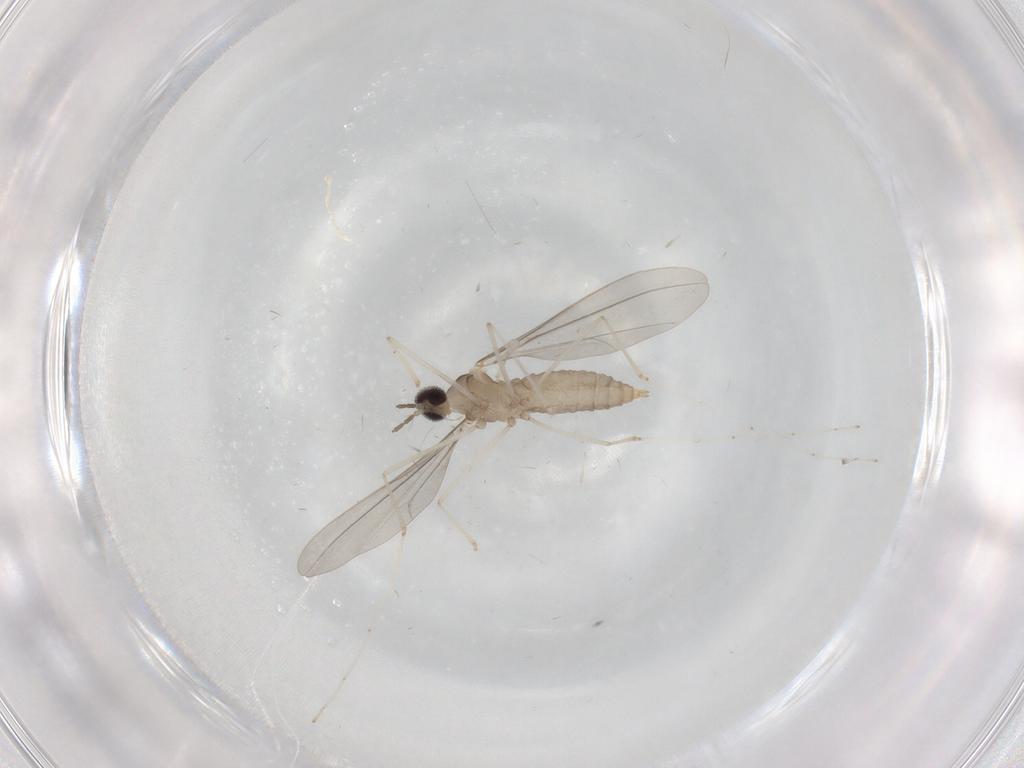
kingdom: Animalia
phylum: Arthropoda
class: Insecta
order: Diptera
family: Cecidomyiidae
